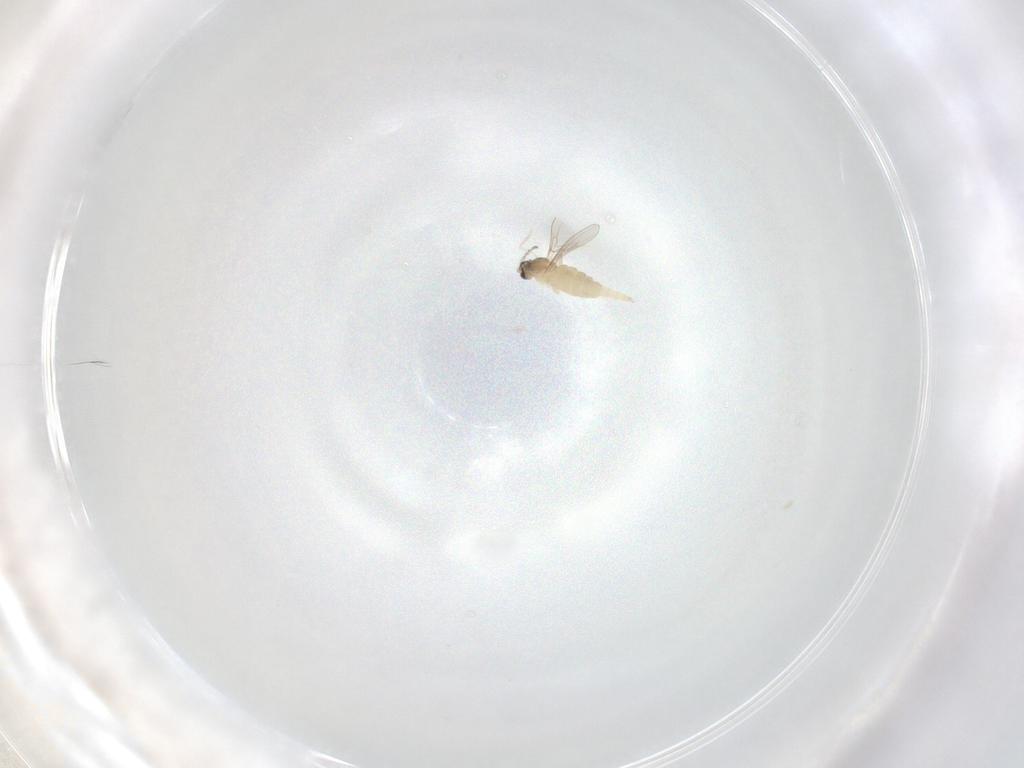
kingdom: Animalia
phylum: Arthropoda
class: Insecta
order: Diptera
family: Cecidomyiidae
